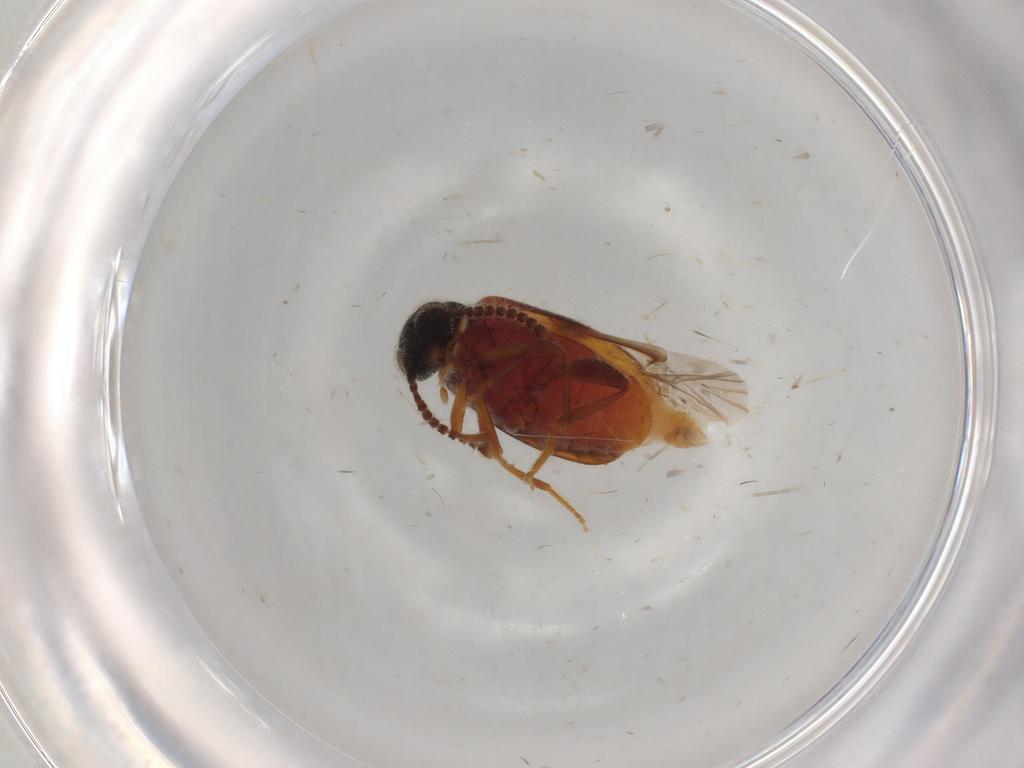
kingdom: Animalia
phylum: Arthropoda
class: Insecta
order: Coleoptera
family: Aderidae
